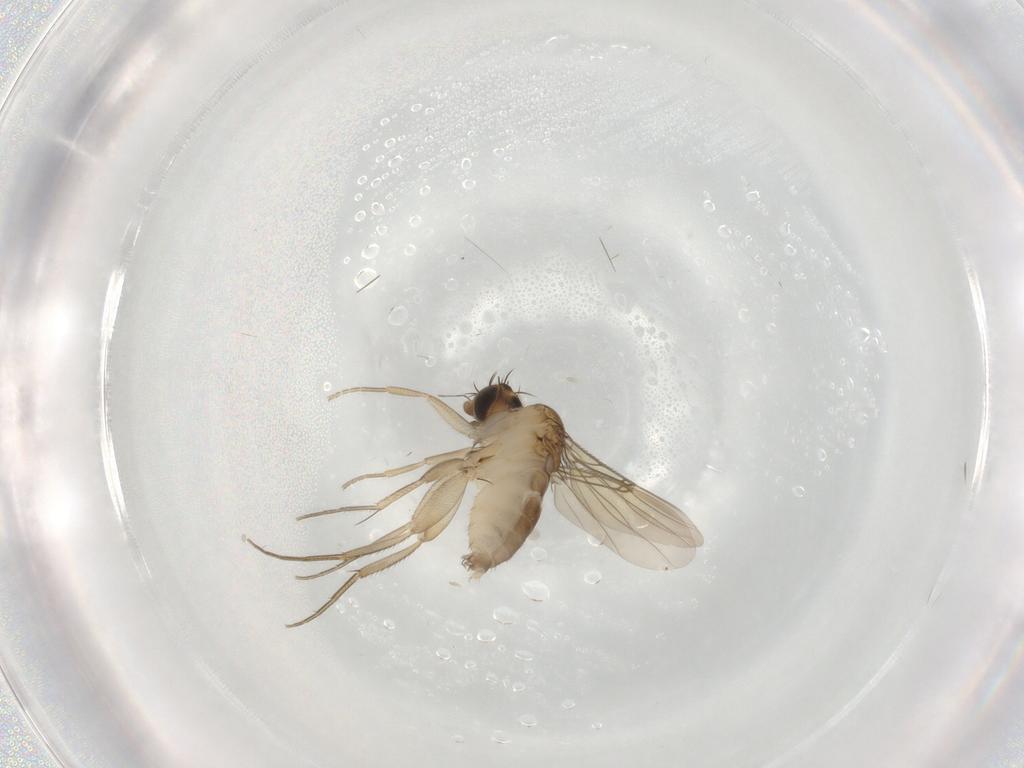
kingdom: Animalia
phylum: Arthropoda
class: Insecta
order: Diptera
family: Phoridae
